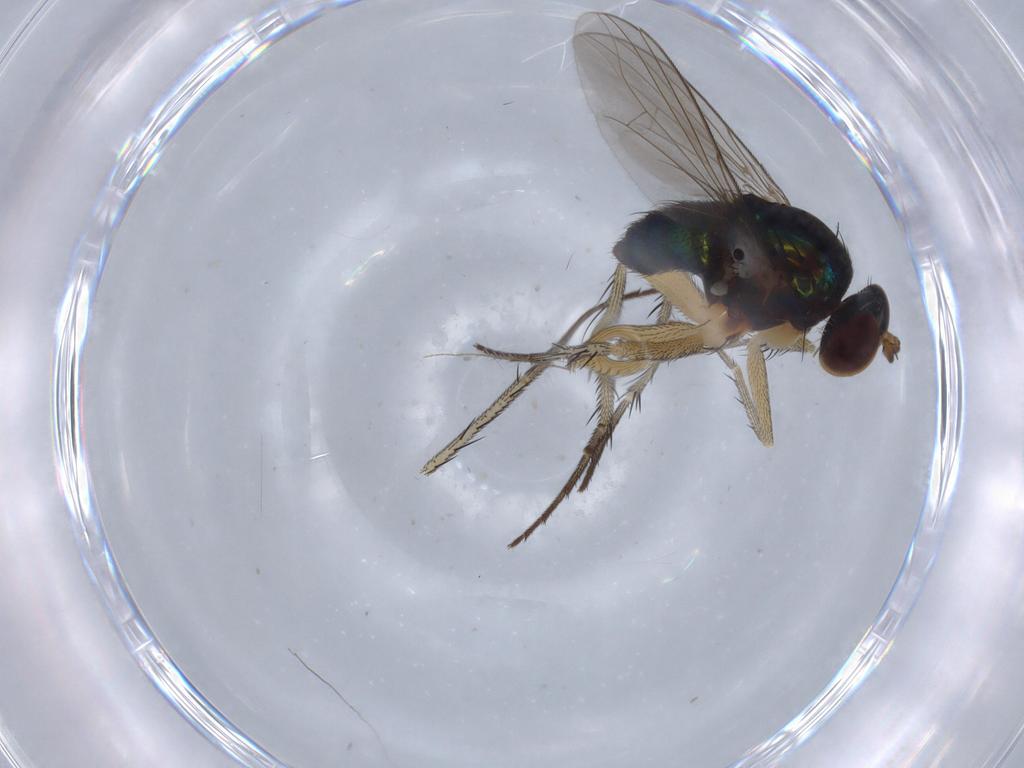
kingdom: Animalia
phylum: Arthropoda
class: Insecta
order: Diptera
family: Dolichopodidae
